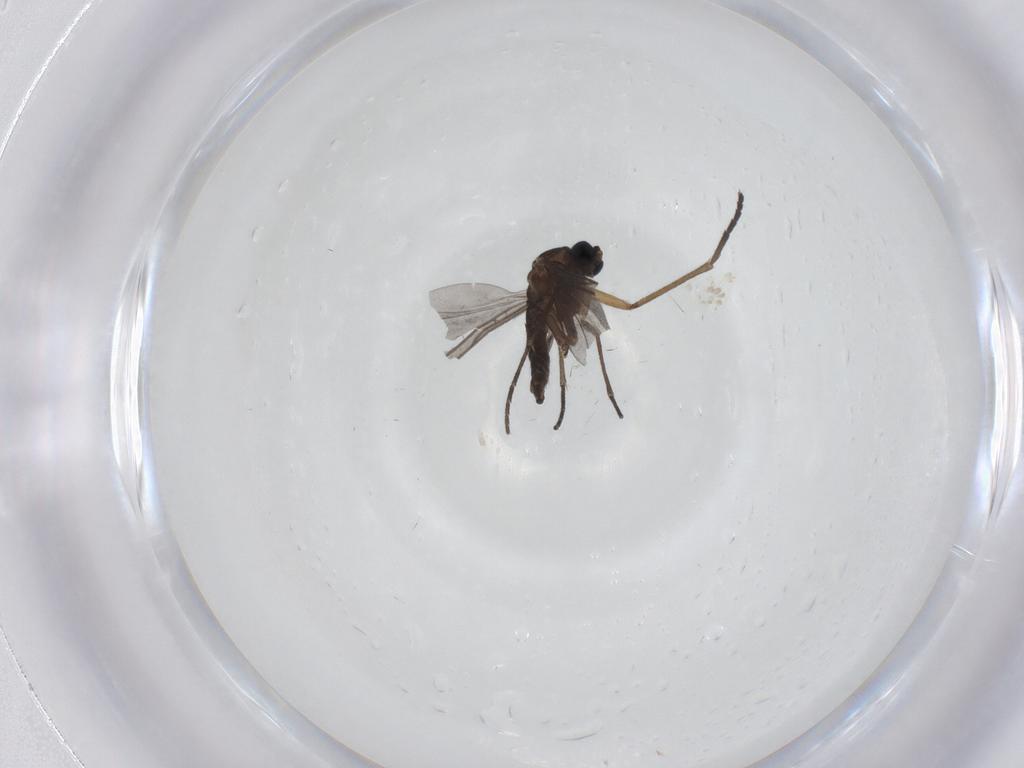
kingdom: Animalia
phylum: Arthropoda
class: Insecta
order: Diptera
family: Sciaridae
